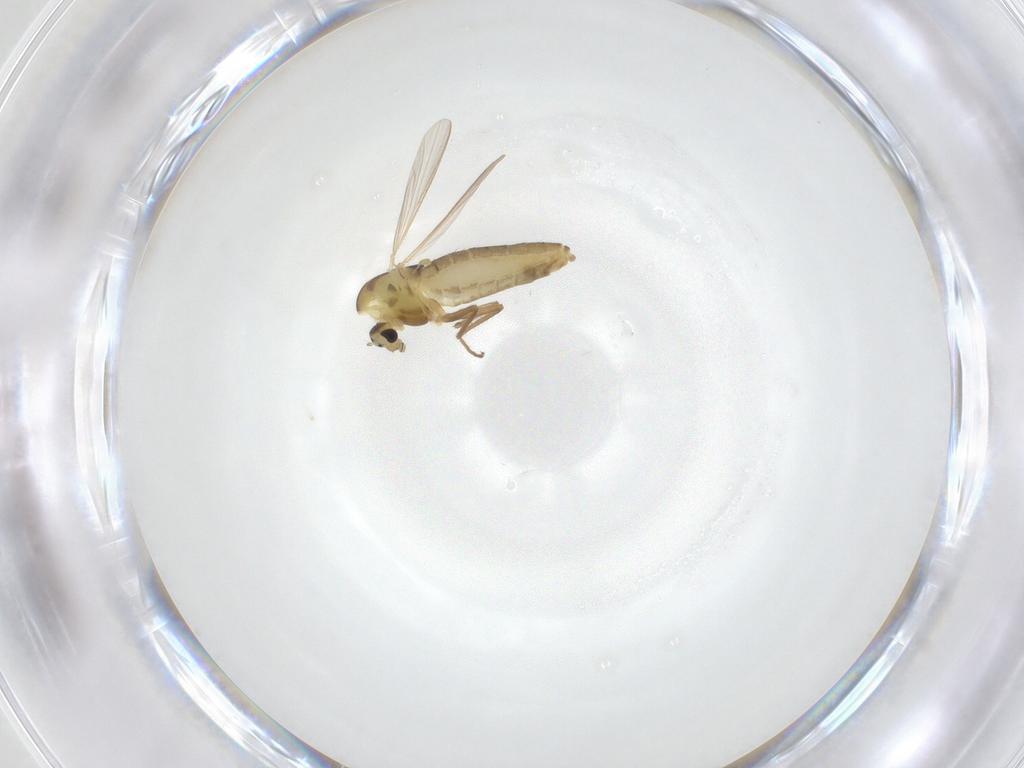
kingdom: Animalia
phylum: Arthropoda
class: Insecta
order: Diptera
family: Chironomidae
